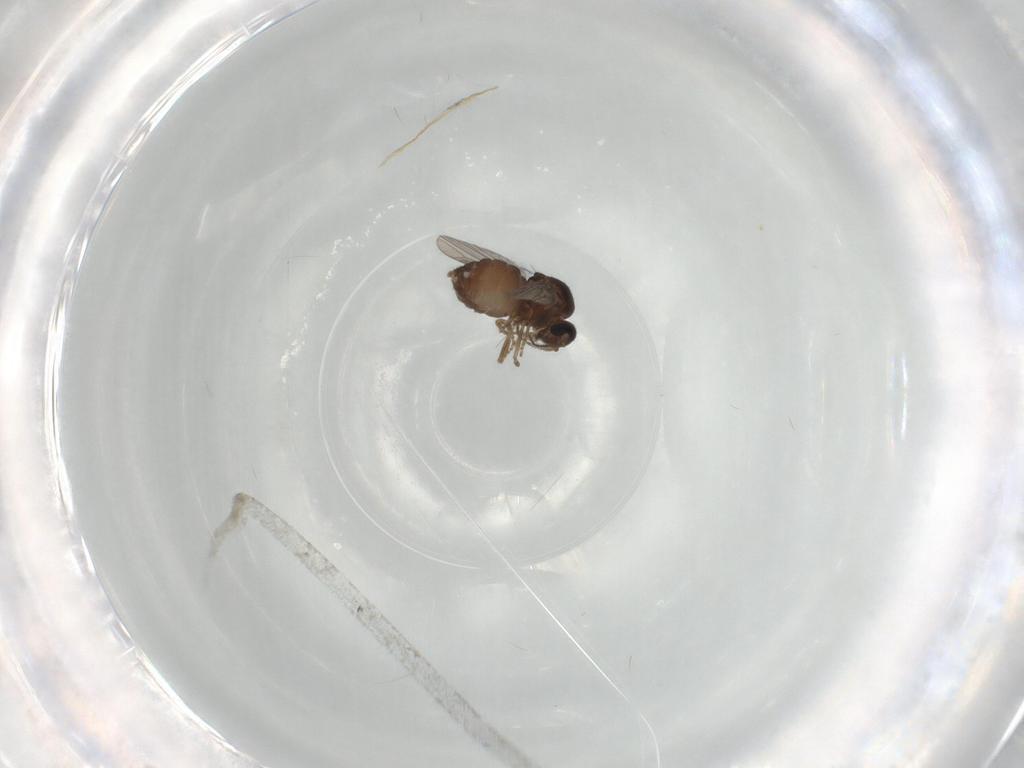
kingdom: Animalia
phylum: Arthropoda
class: Insecta
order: Diptera
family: Ceratopogonidae
